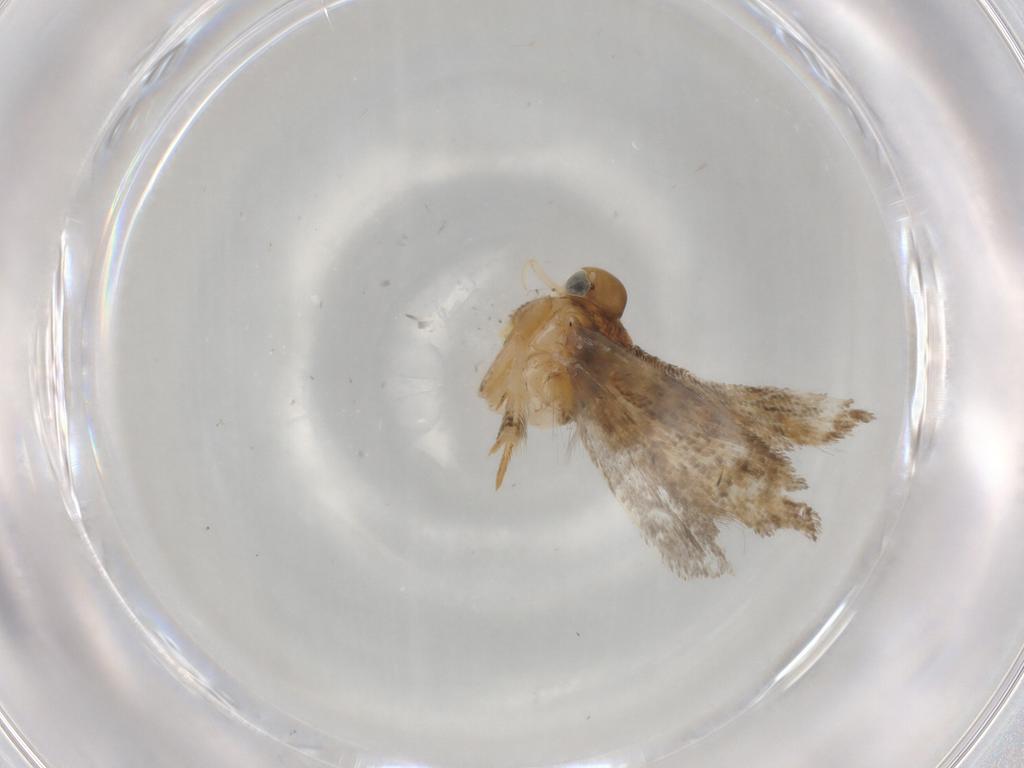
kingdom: Animalia
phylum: Arthropoda
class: Insecta
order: Lepidoptera
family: Gelechiidae
